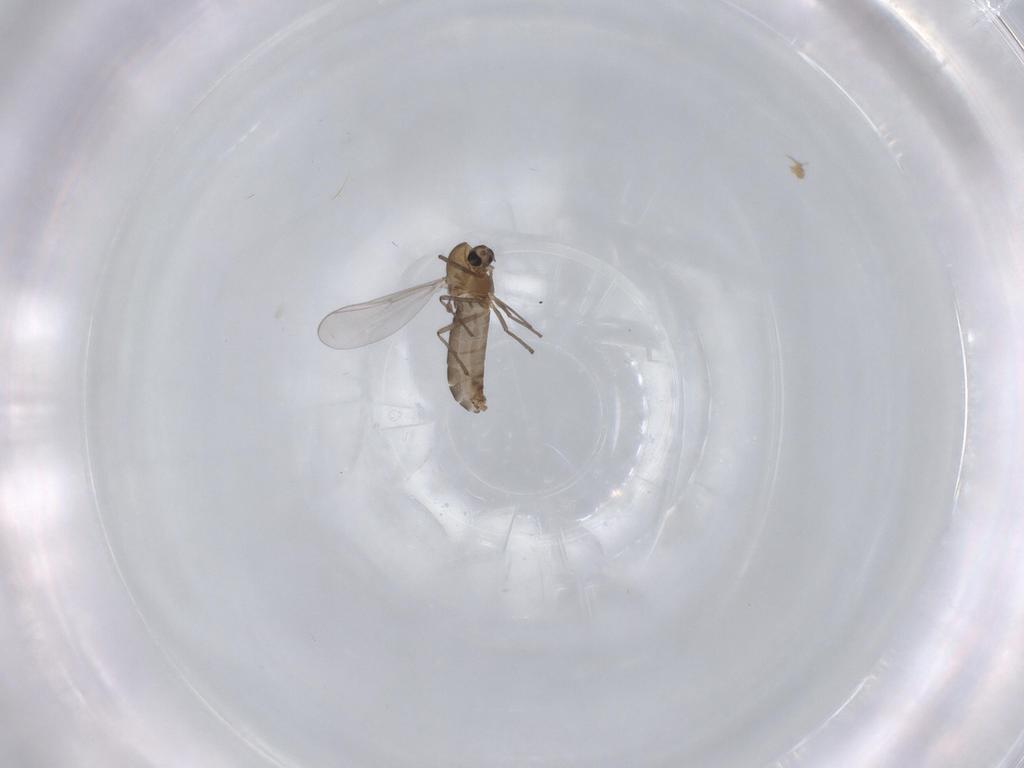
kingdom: Animalia
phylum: Arthropoda
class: Insecta
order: Diptera
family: Chironomidae
